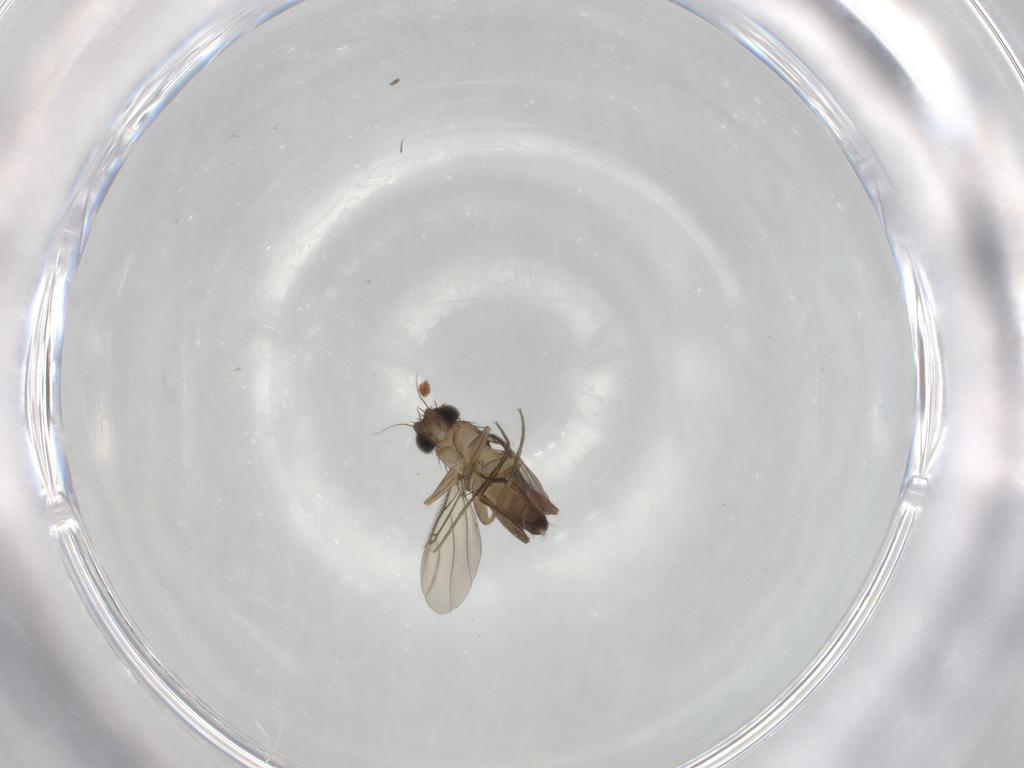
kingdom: Animalia
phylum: Arthropoda
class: Insecta
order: Diptera
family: Phoridae
